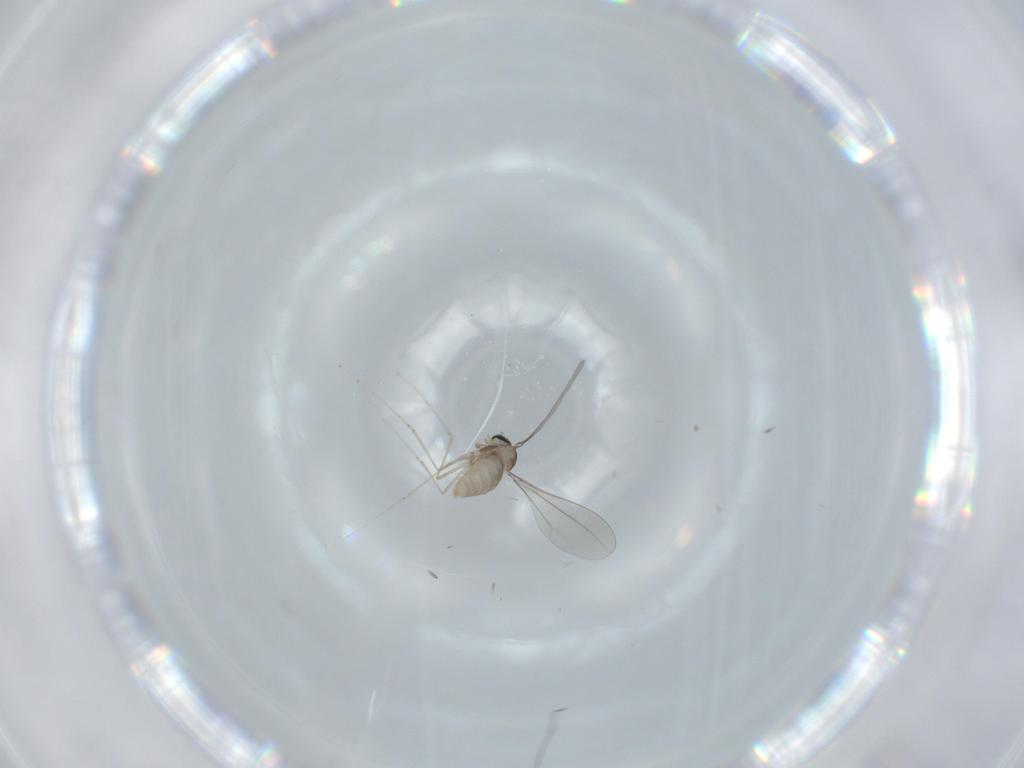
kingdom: Animalia
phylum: Arthropoda
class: Insecta
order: Diptera
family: Cecidomyiidae
